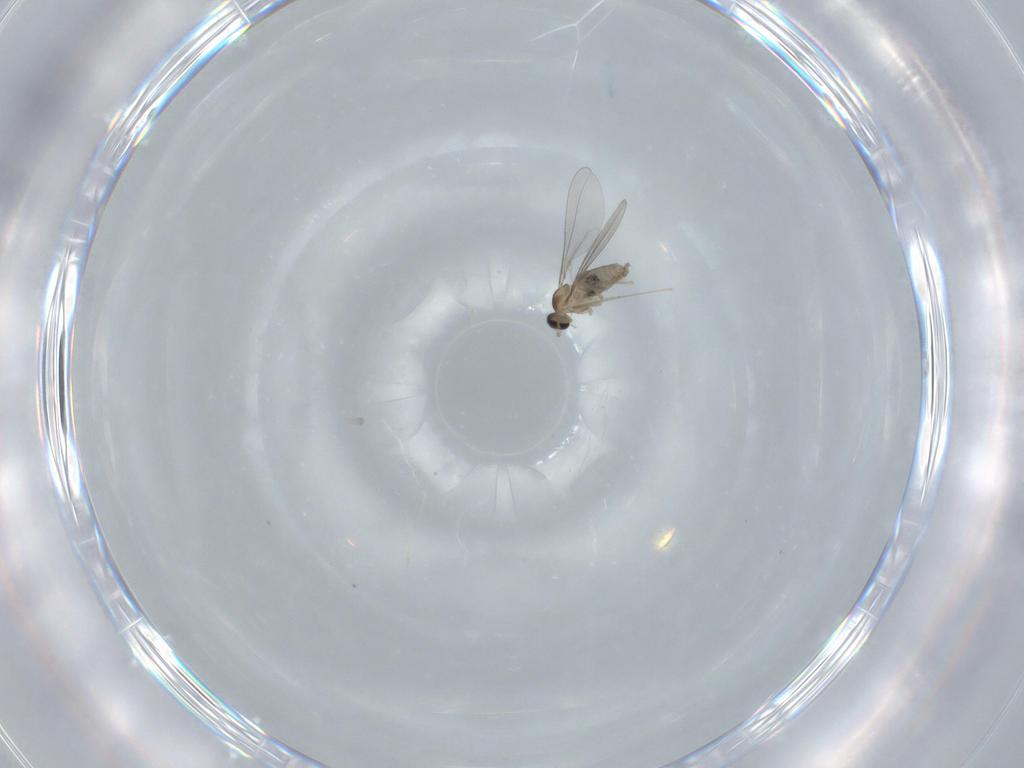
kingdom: Animalia
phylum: Arthropoda
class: Insecta
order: Diptera
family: Cecidomyiidae
